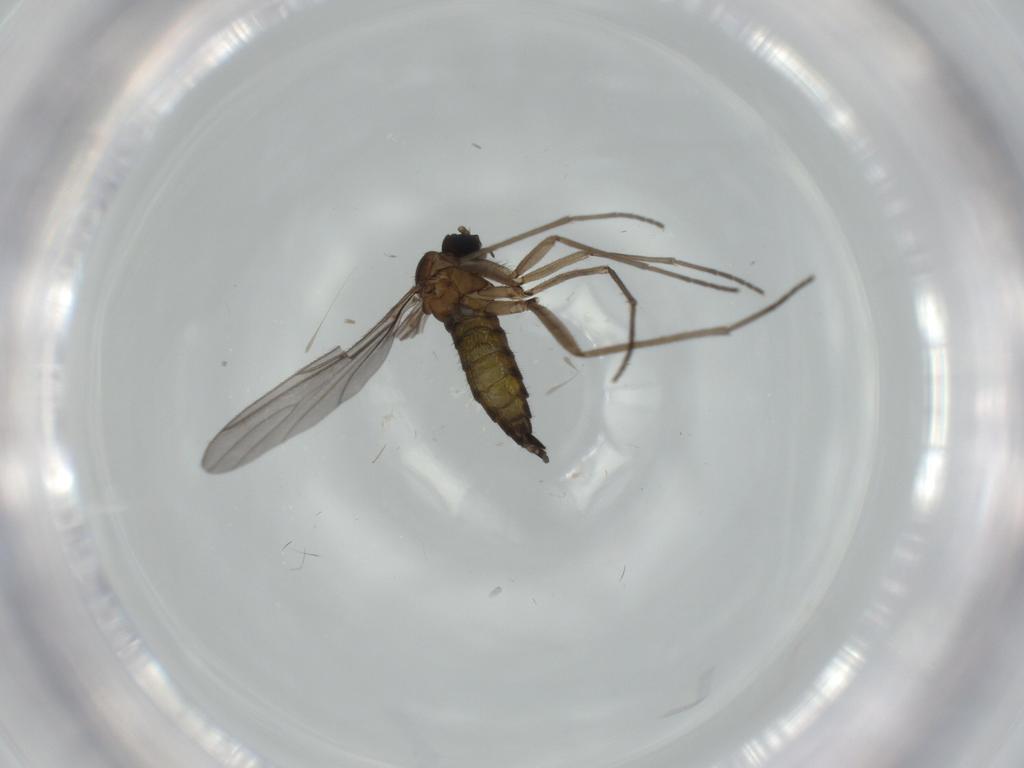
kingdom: Animalia
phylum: Arthropoda
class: Insecta
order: Diptera
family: Sciaridae
